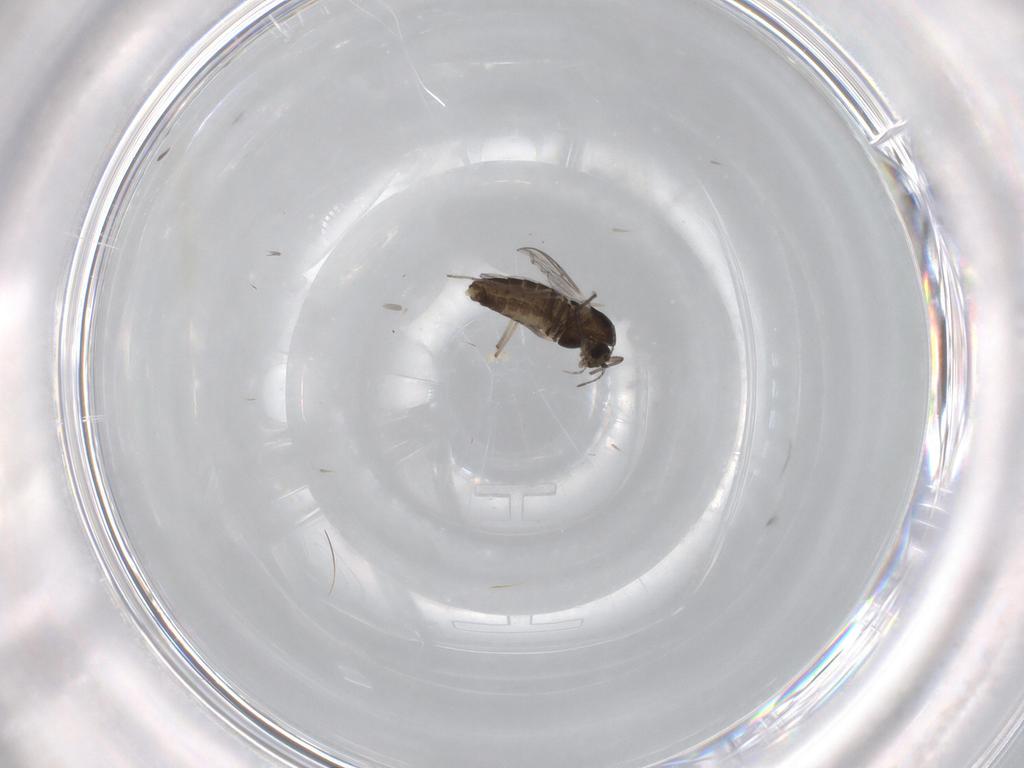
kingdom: Animalia
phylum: Arthropoda
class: Insecta
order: Diptera
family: Chironomidae
